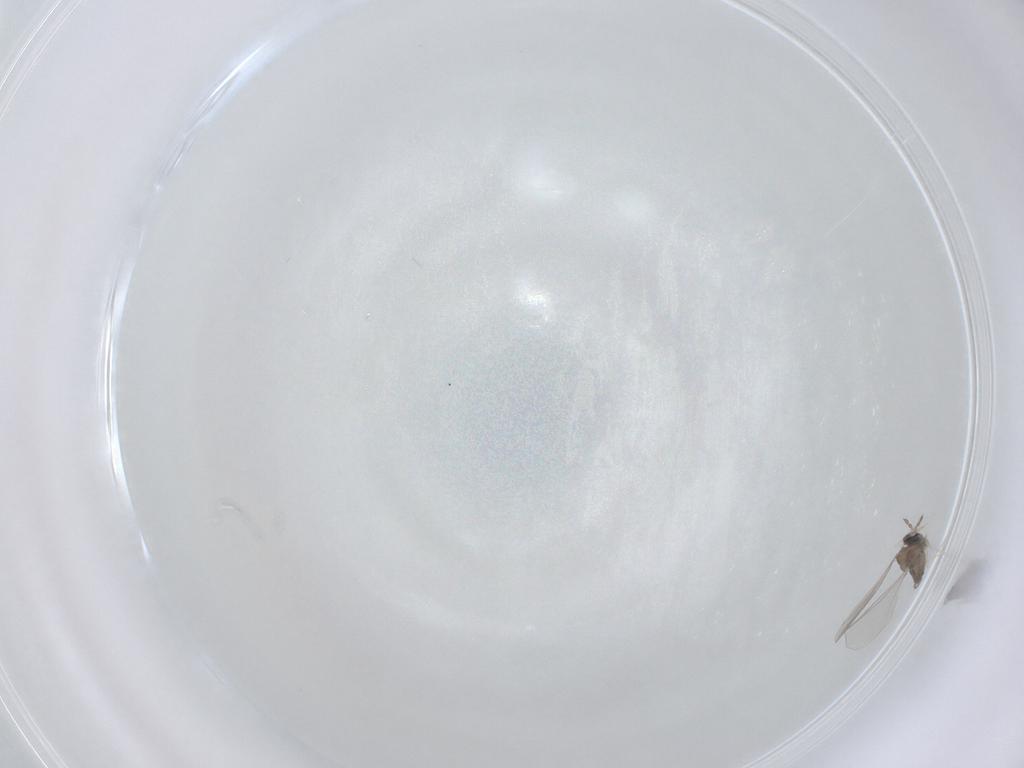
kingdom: Animalia
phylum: Arthropoda
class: Insecta
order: Diptera
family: Cecidomyiidae
